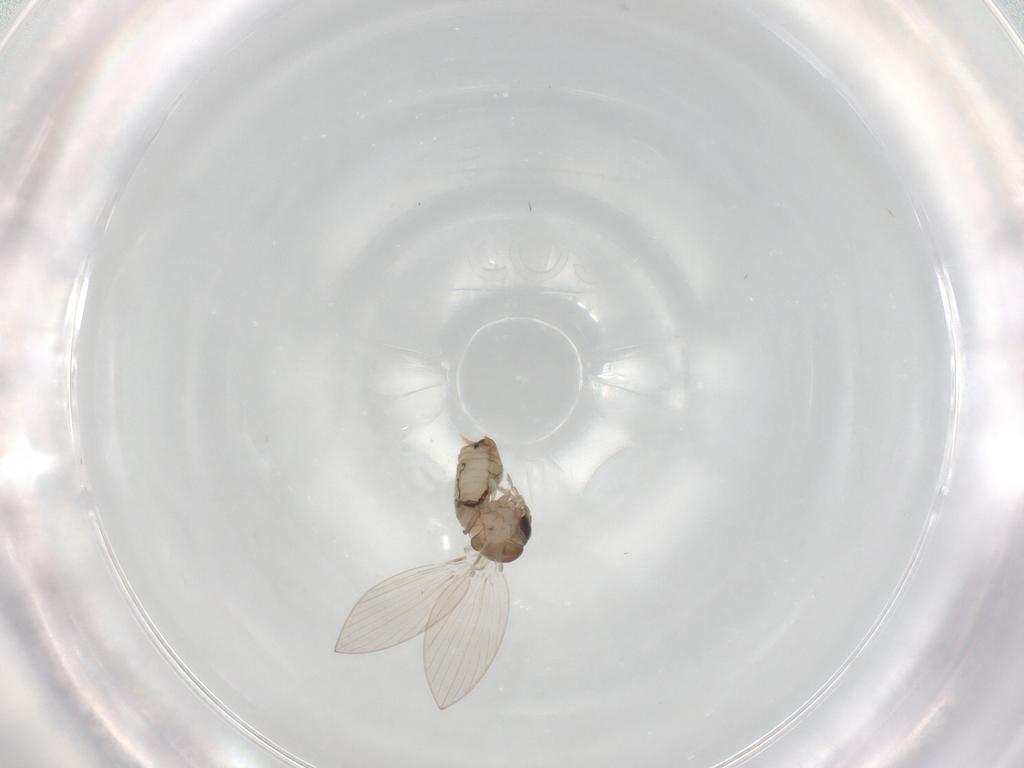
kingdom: Animalia
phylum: Arthropoda
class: Insecta
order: Diptera
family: Psychodidae
